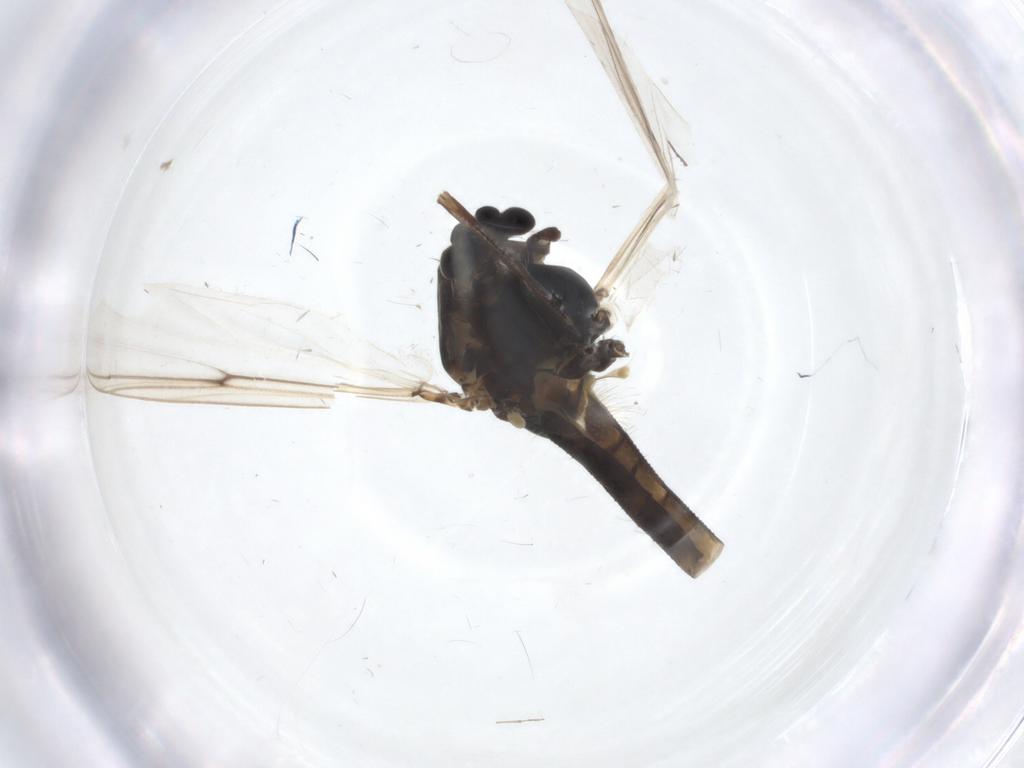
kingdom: Animalia
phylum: Arthropoda
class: Insecta
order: Diptera
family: Chironomidae
